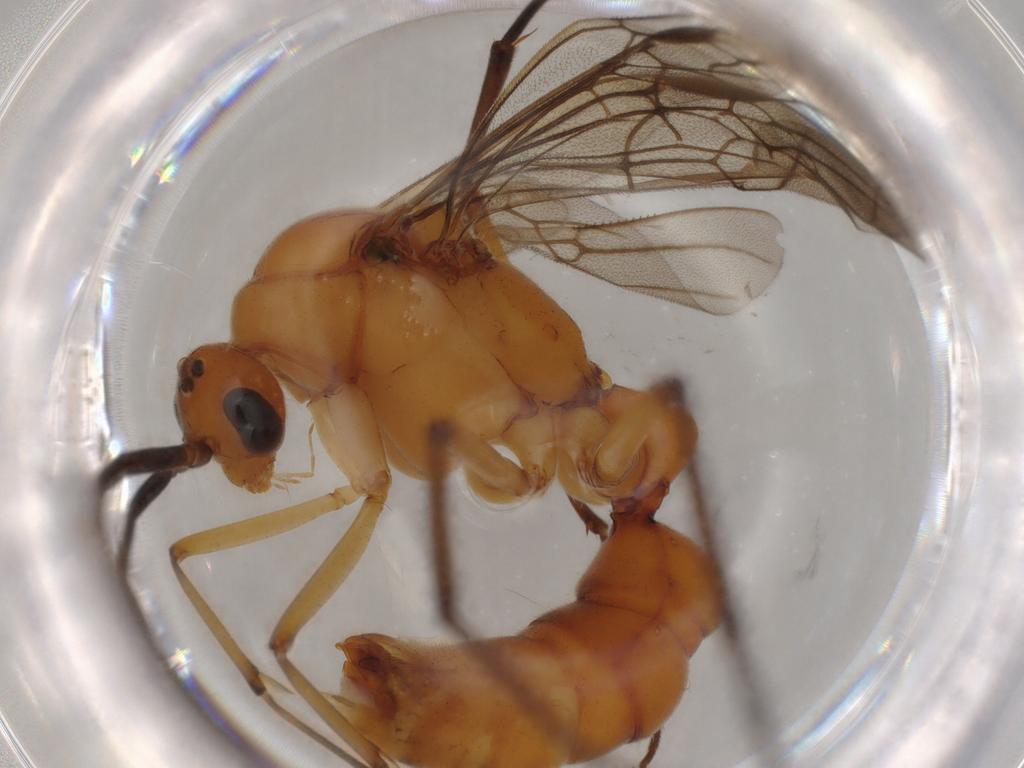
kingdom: Animalia
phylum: Arthropoda
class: Insecta
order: Hymenoptera
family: Formicidae
